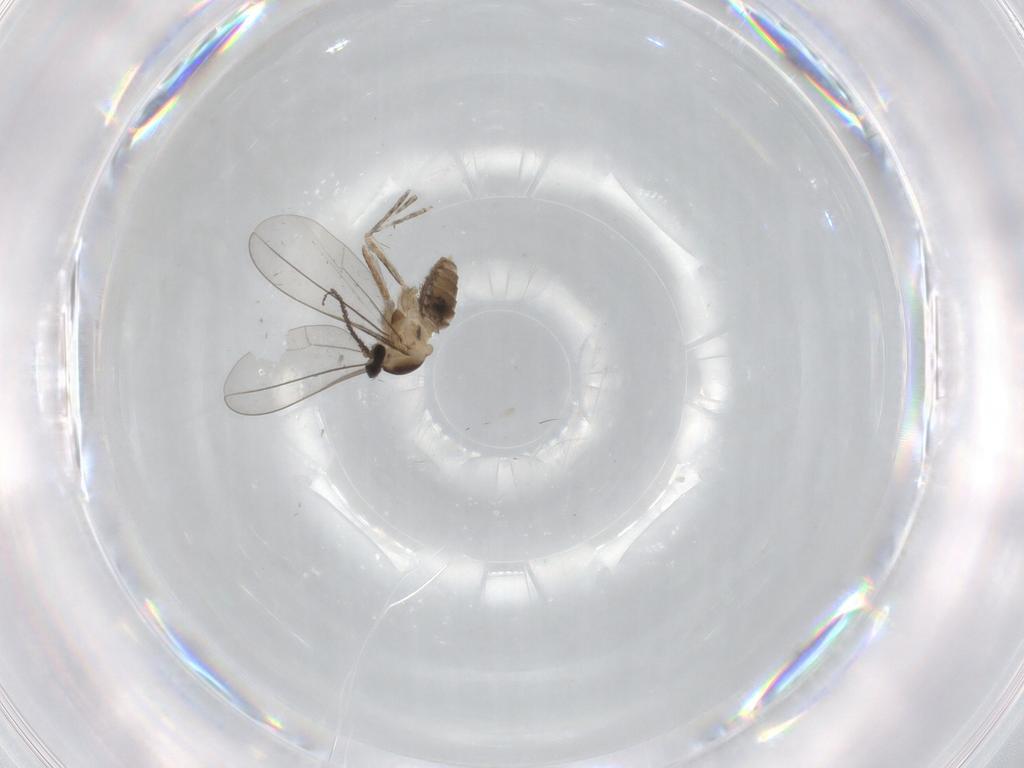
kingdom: Animalia
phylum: Arthropoda
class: Insecta
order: Diptera
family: Cecidomyiidae
